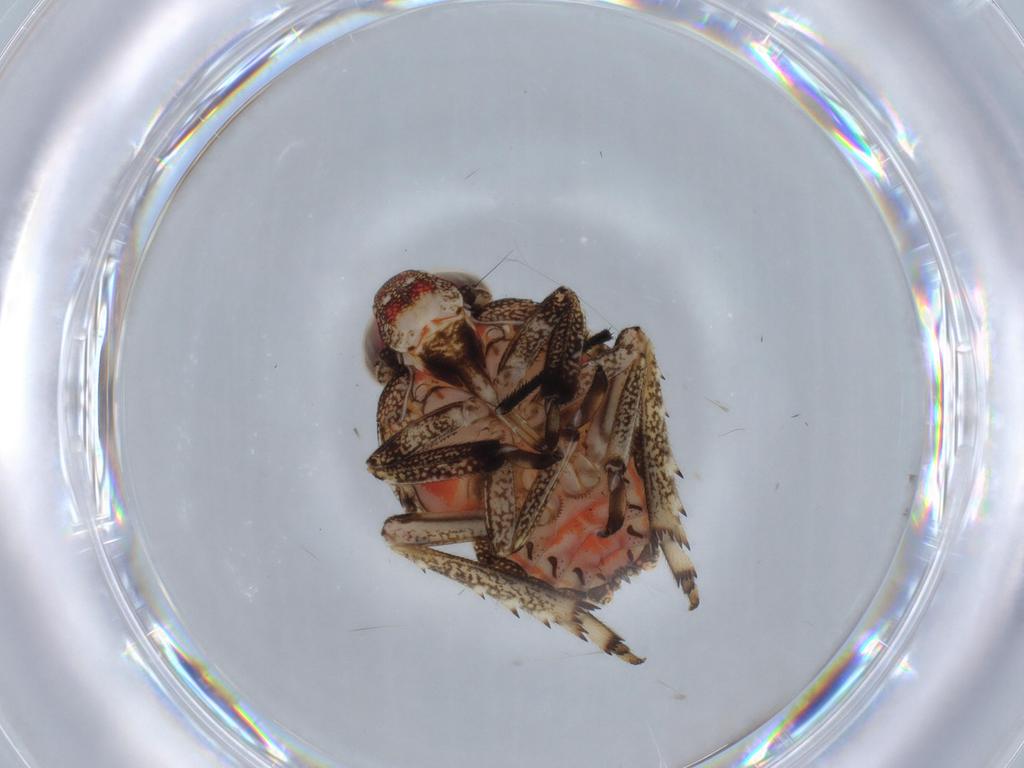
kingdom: Animalia
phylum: Arthropoda
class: Insecta
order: Hemiptera
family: Issidae
